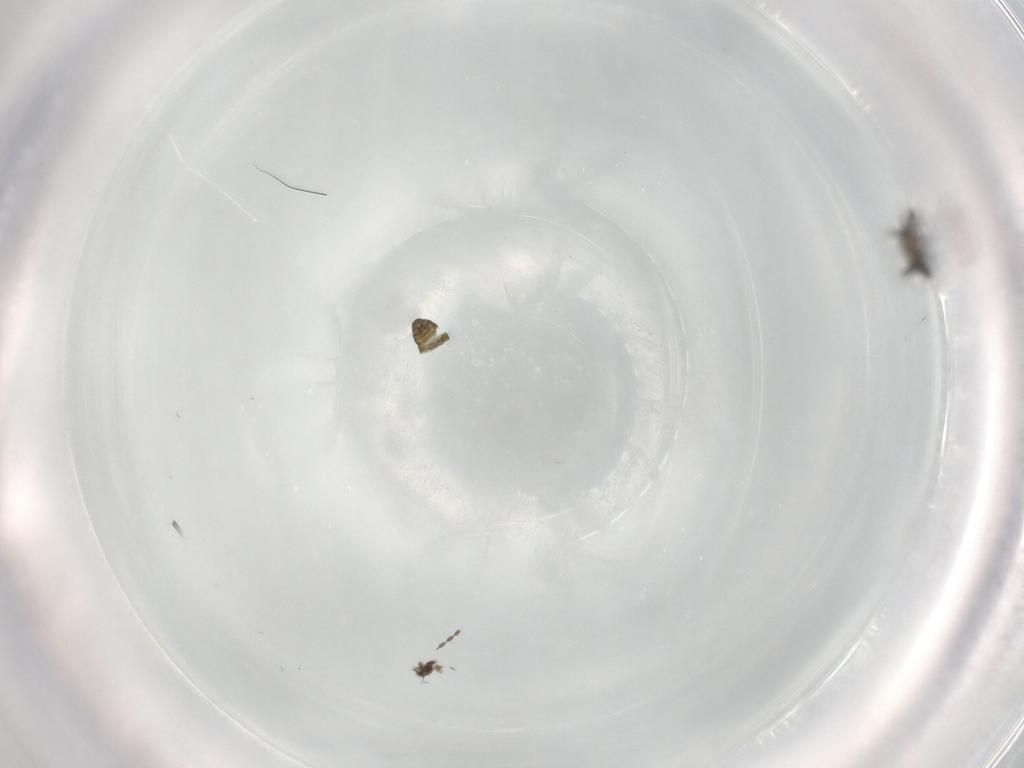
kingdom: Animalia
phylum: Arthropoda
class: Insecta
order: Diptera
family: Ceratopogonidae
